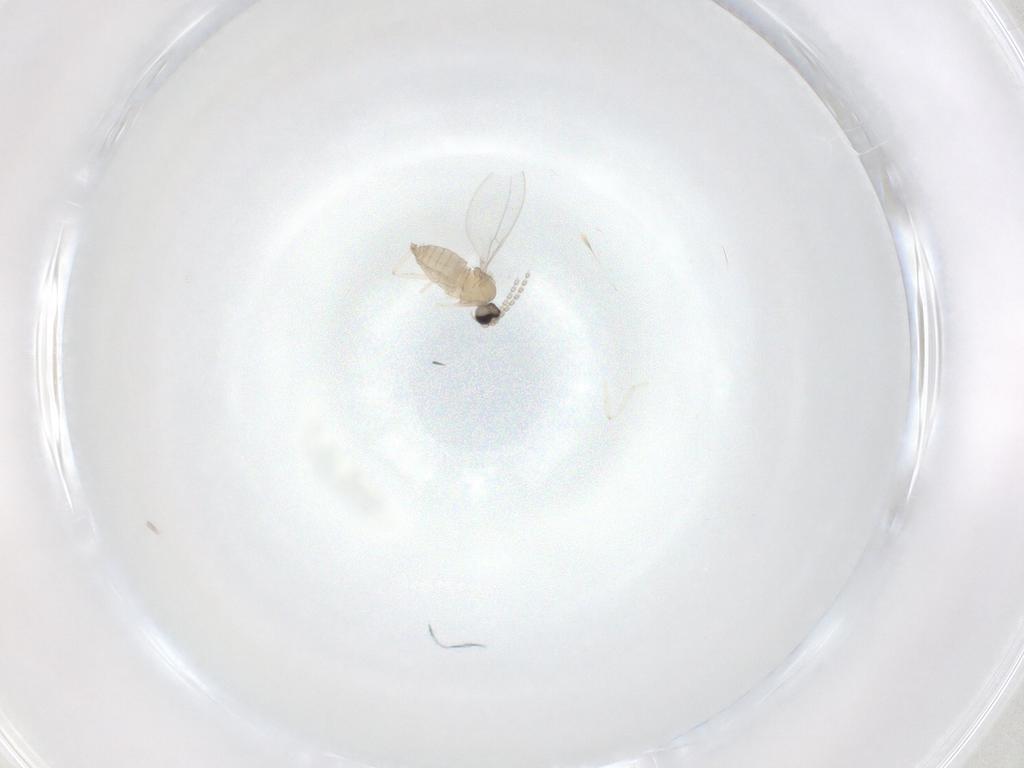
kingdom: Animalia
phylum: Arthropoda
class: Insecta
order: Diptera
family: Cecidomyiidae
